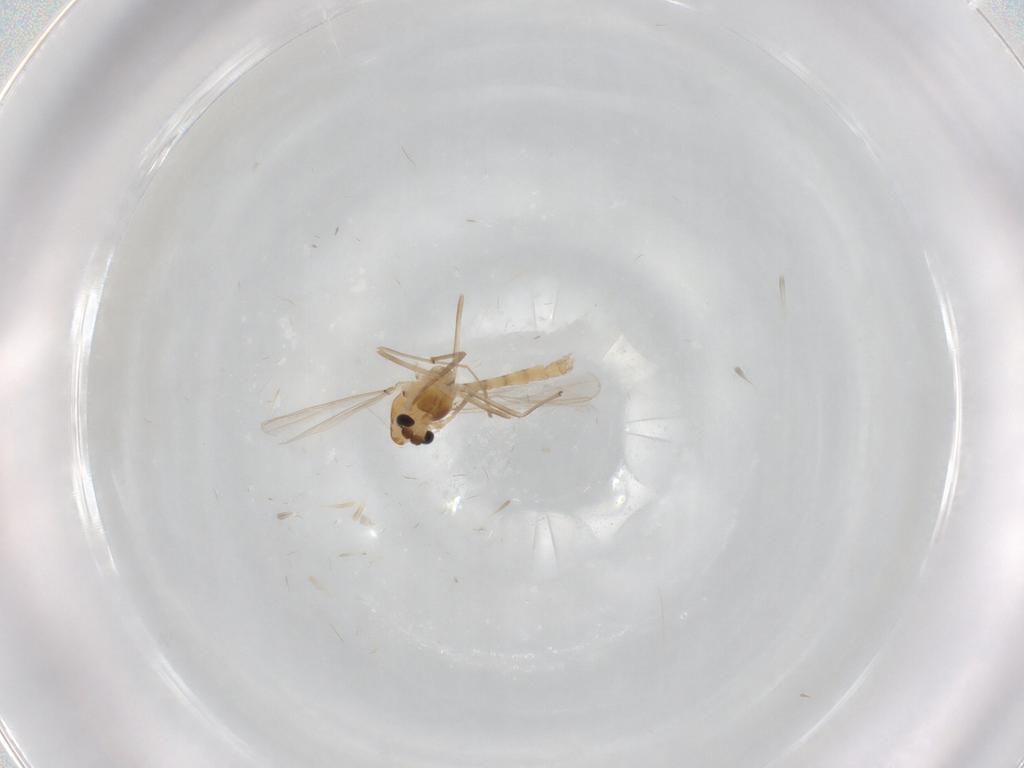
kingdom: Animalia
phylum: Arthropoda
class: Insecta
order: Diptera
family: Chironomidae
